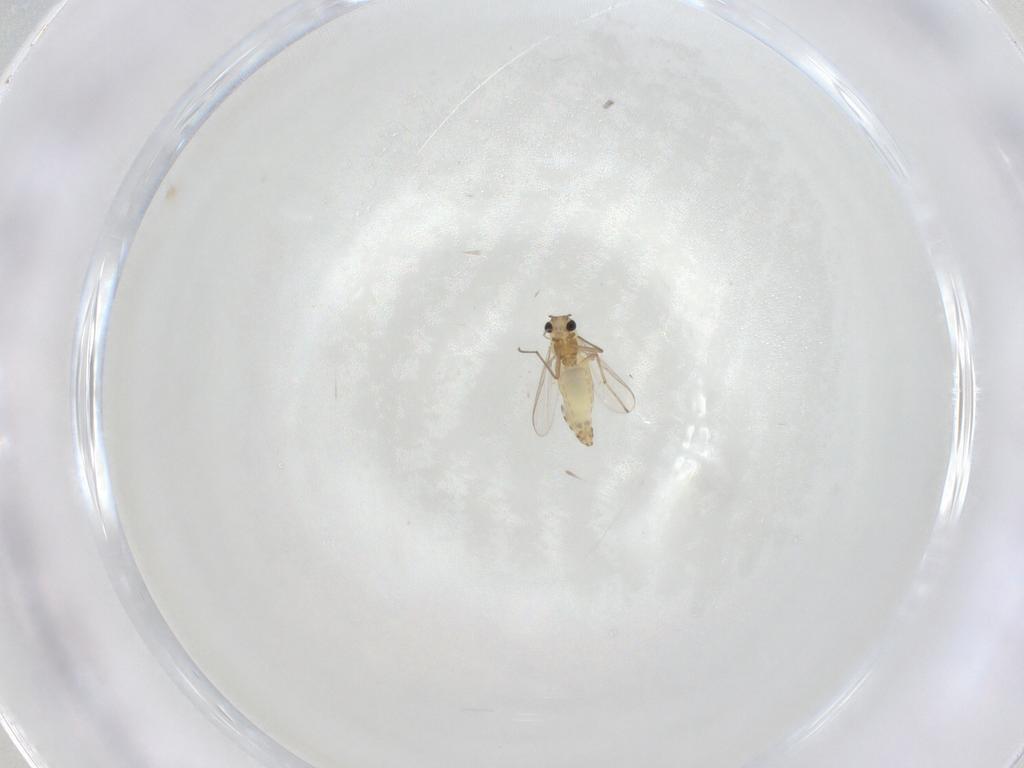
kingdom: Animalia
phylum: Arthropoda
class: Insecta
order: Diptera
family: Chironomidae
